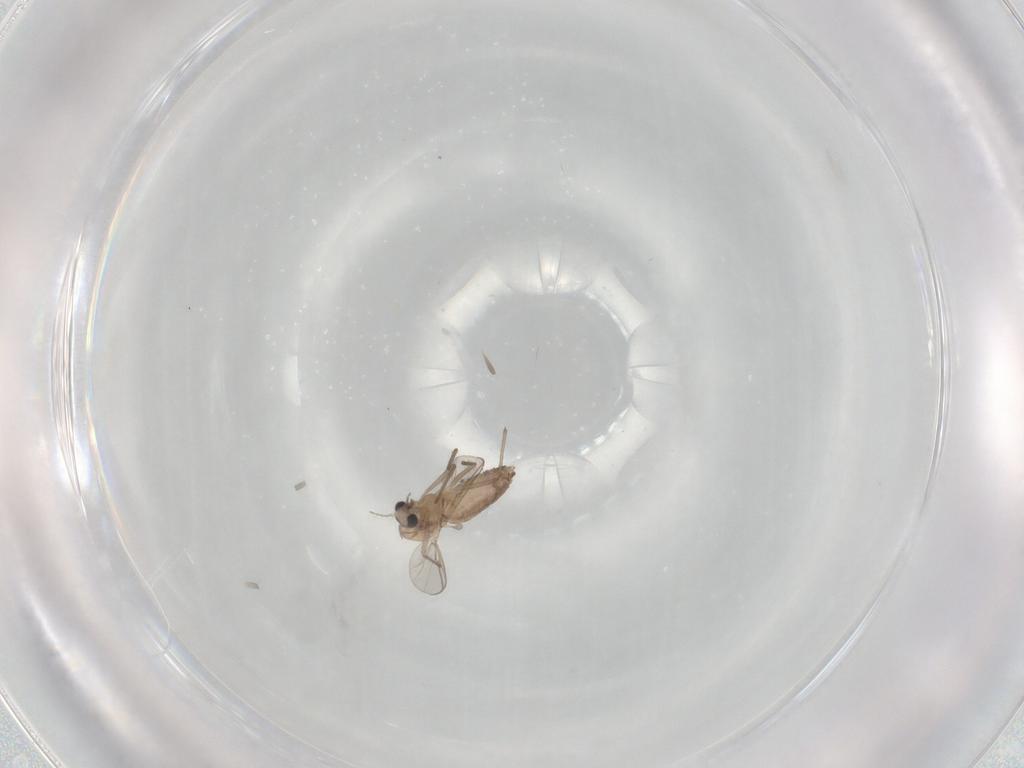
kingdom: Animalia
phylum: Arthropoda
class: Insecta
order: Diptera
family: Chironomidae
